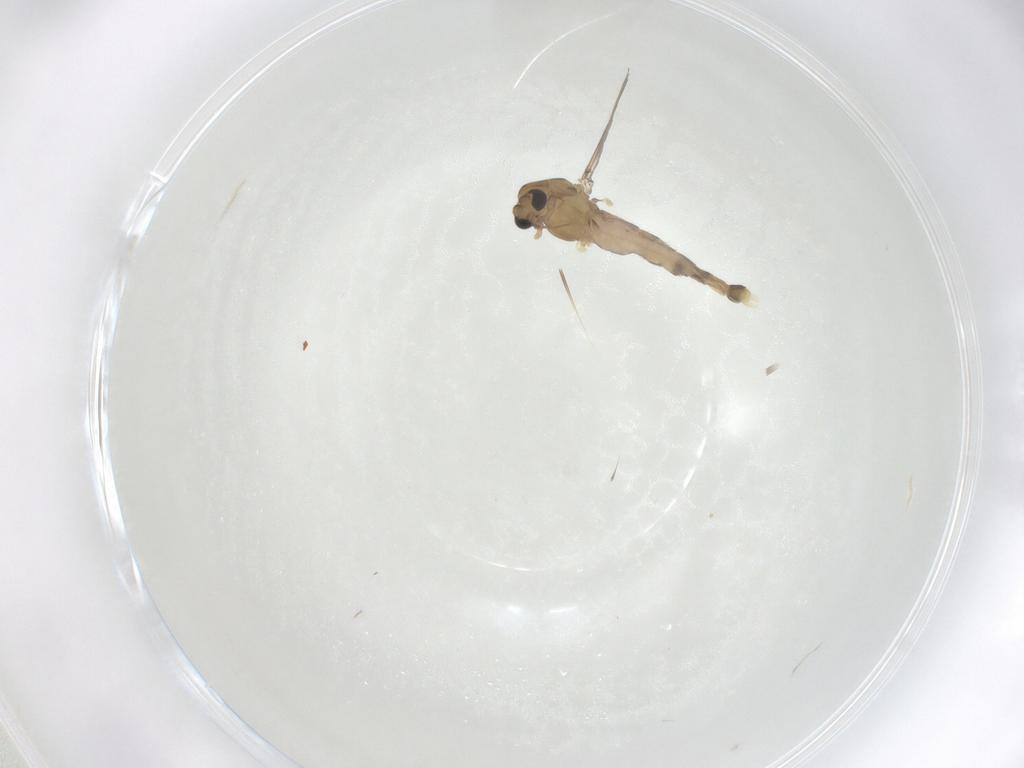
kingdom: Animalia
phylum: Arthropoda
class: Insecta
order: Diptera
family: Chironomidae
